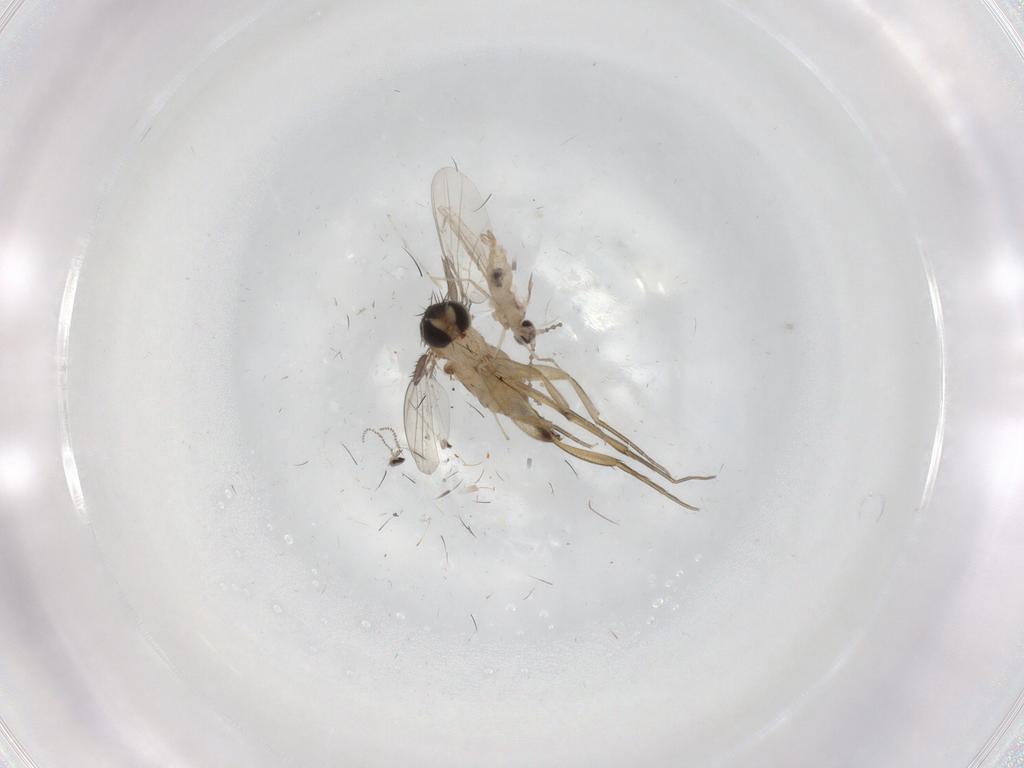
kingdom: Animalia
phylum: Arthropoda
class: Insecta
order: Diptera
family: Phoridae
